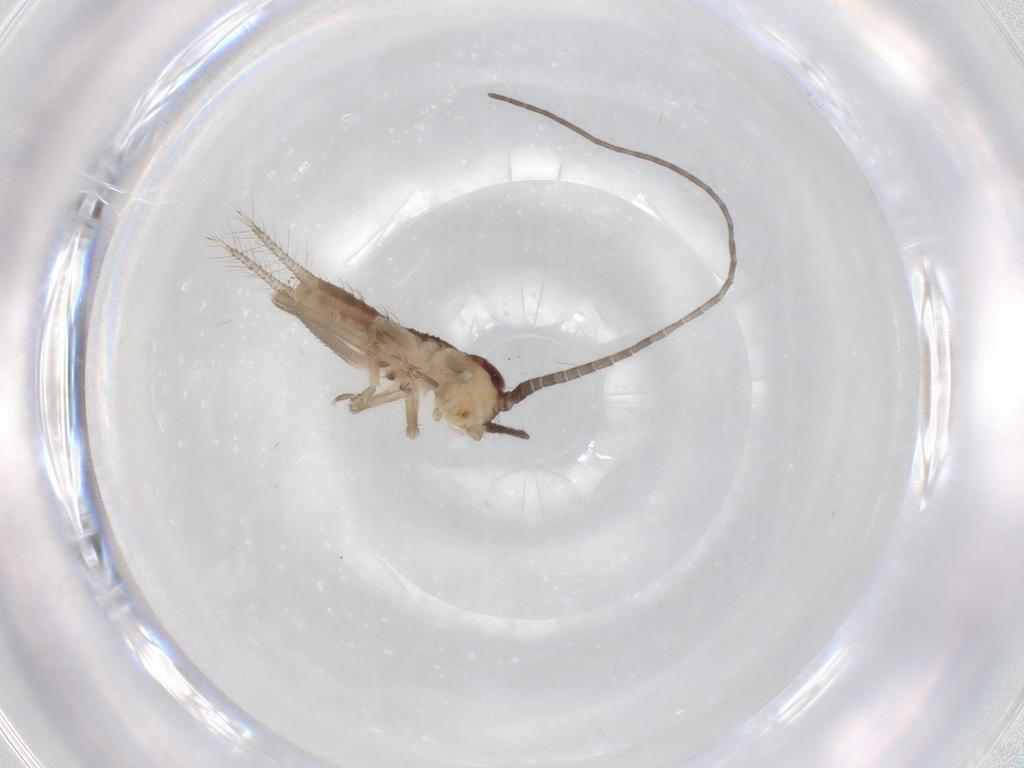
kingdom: Animalia
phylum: Arthropoda
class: Insecta
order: Orthoptera
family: Gryllidae
